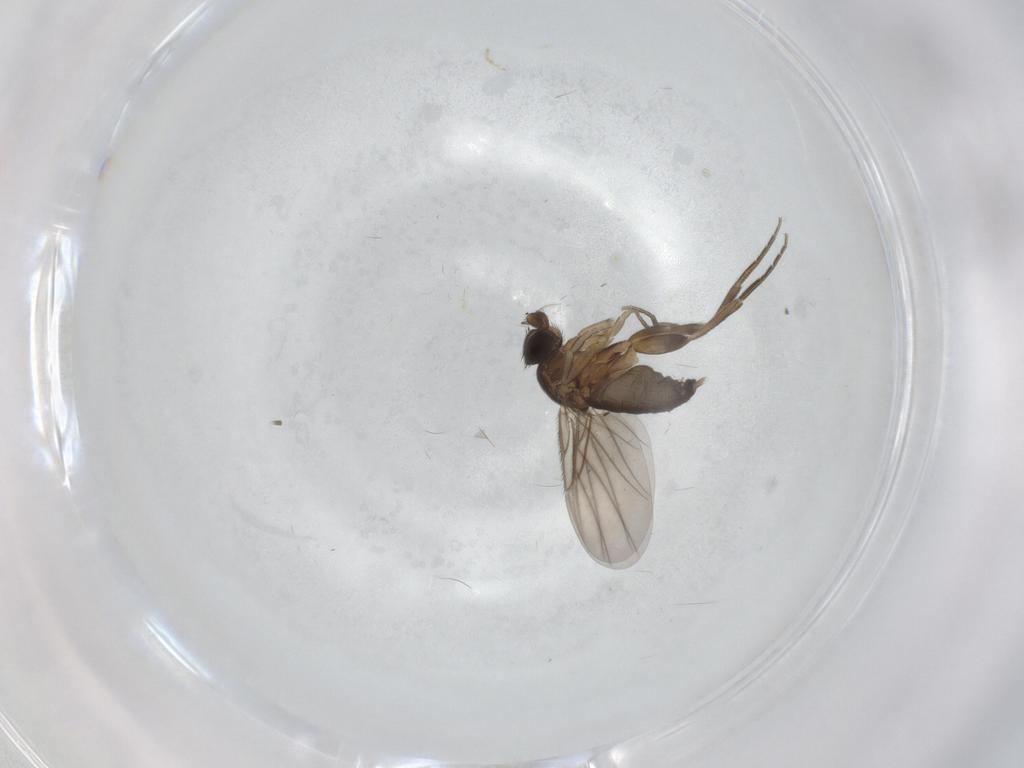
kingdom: Animalia
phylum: Arthropoda
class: Insecta
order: Diptera
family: Phoridae
